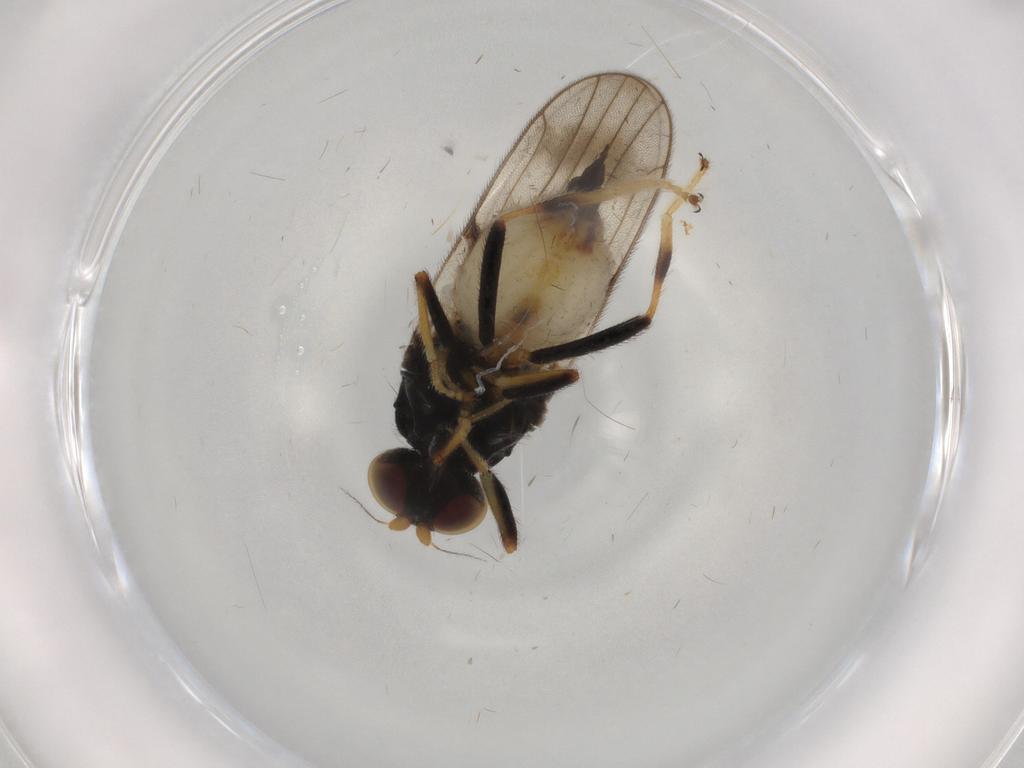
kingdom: Animalia
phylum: Arthropoda
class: Insecta
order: Diptera
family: Chloropidae
